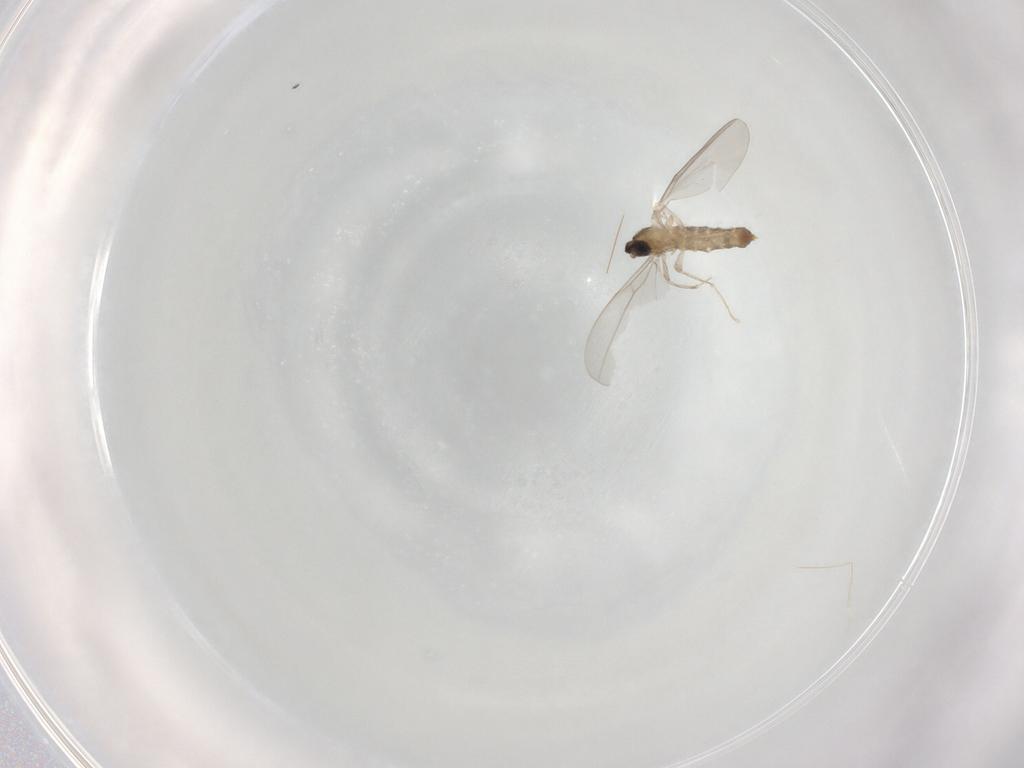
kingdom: Animalia
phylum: Arthropoda
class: Insecta
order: Diptera
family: Cecidomyiidae
